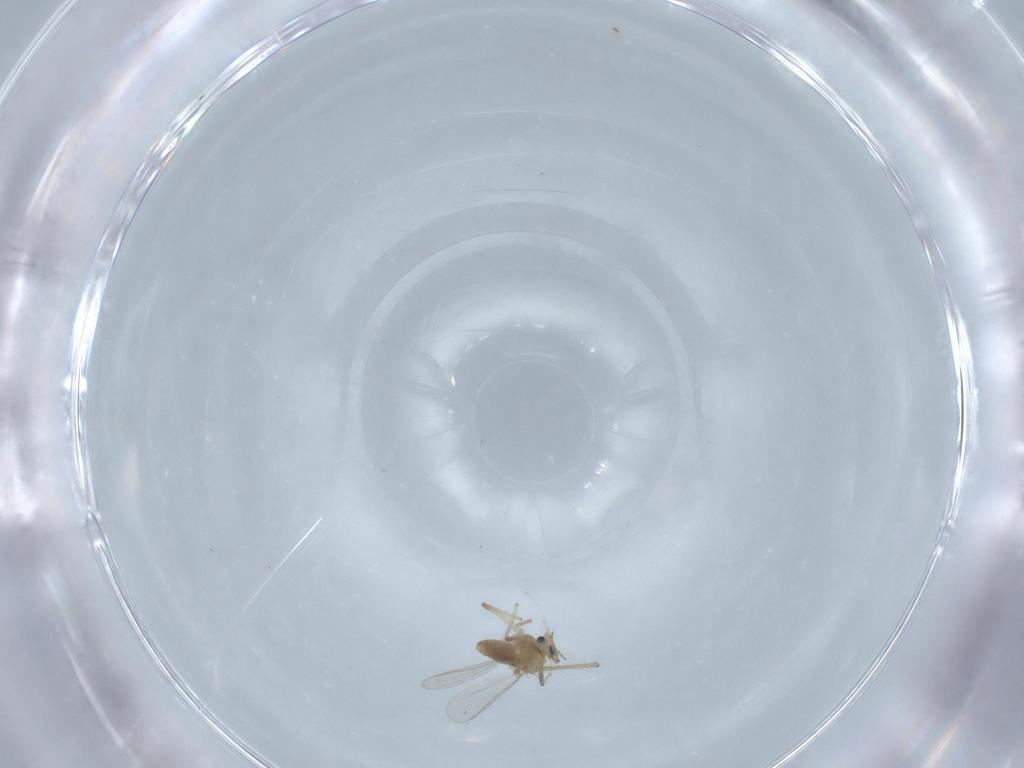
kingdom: Animalia
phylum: Arthropoda
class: Insecta
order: Diptera
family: Chironomidae
